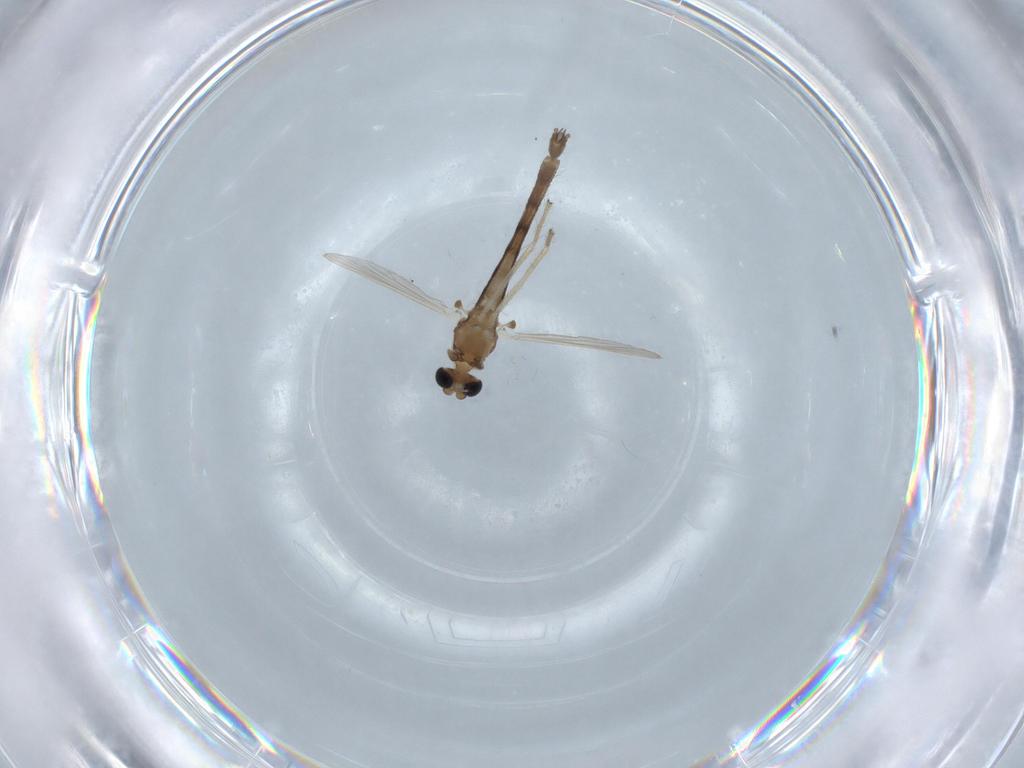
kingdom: Animalia
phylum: Arthropoda
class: Insecta
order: Diptera
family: Chironomidae
